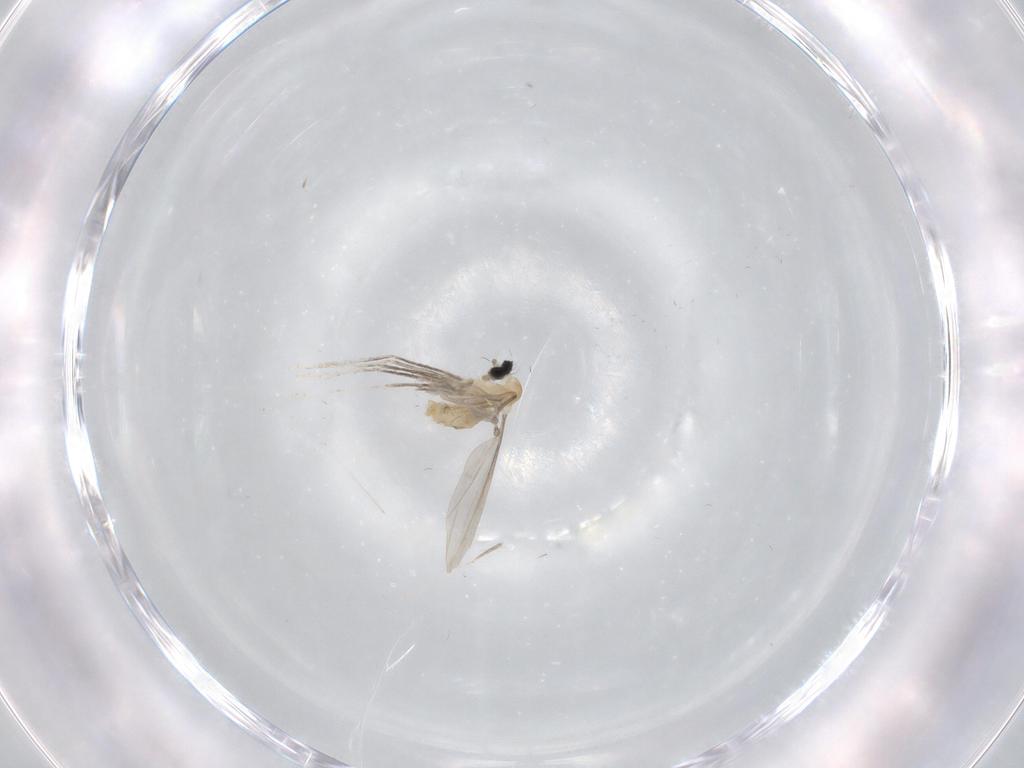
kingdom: Animalia
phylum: Arthropoda
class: Insecta
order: Diptera
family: Cecidomyiidae
